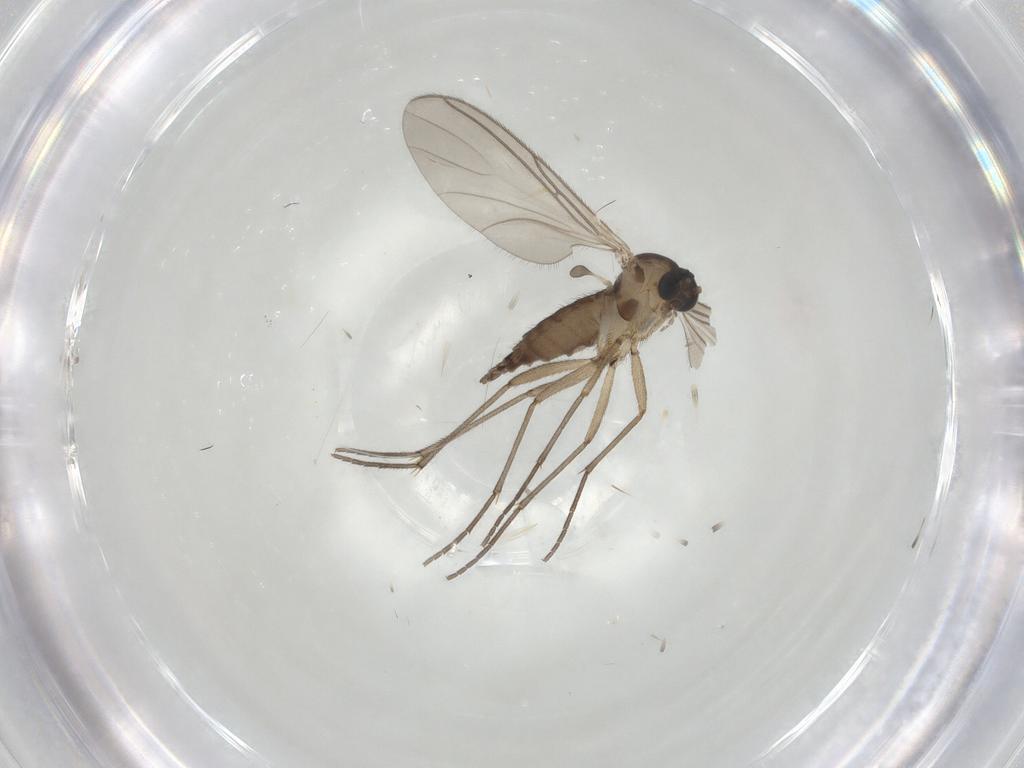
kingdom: Animalia
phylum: Arthropoda
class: Insecta
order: Diptera
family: Sciaridae
